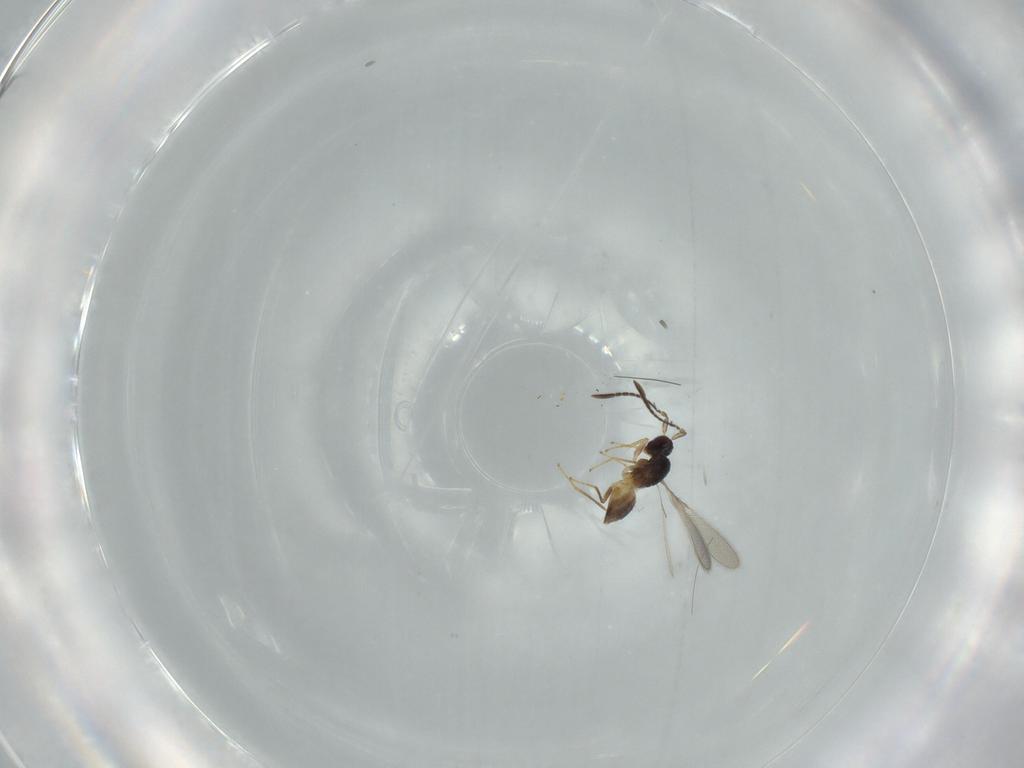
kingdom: Animalia
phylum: Arthropoda
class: Insecta
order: Hymenoptera
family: Mymaridae
